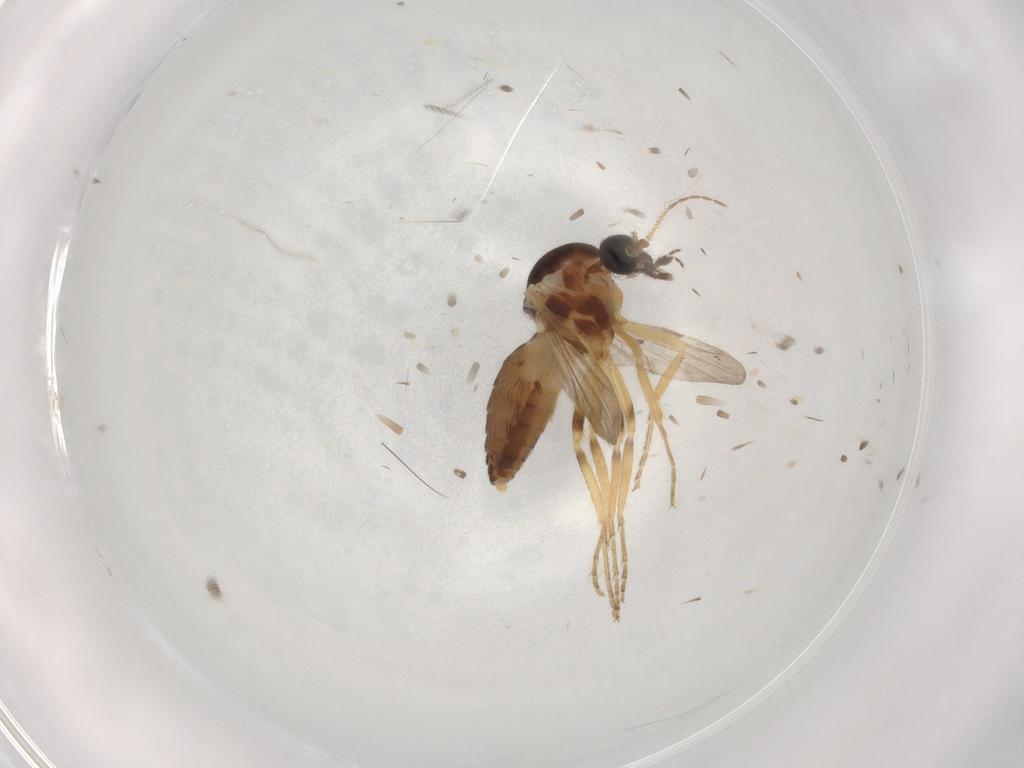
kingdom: Animalia
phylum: Arthropoda
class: Insecta
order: Diptera
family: Ceratopogonidae
